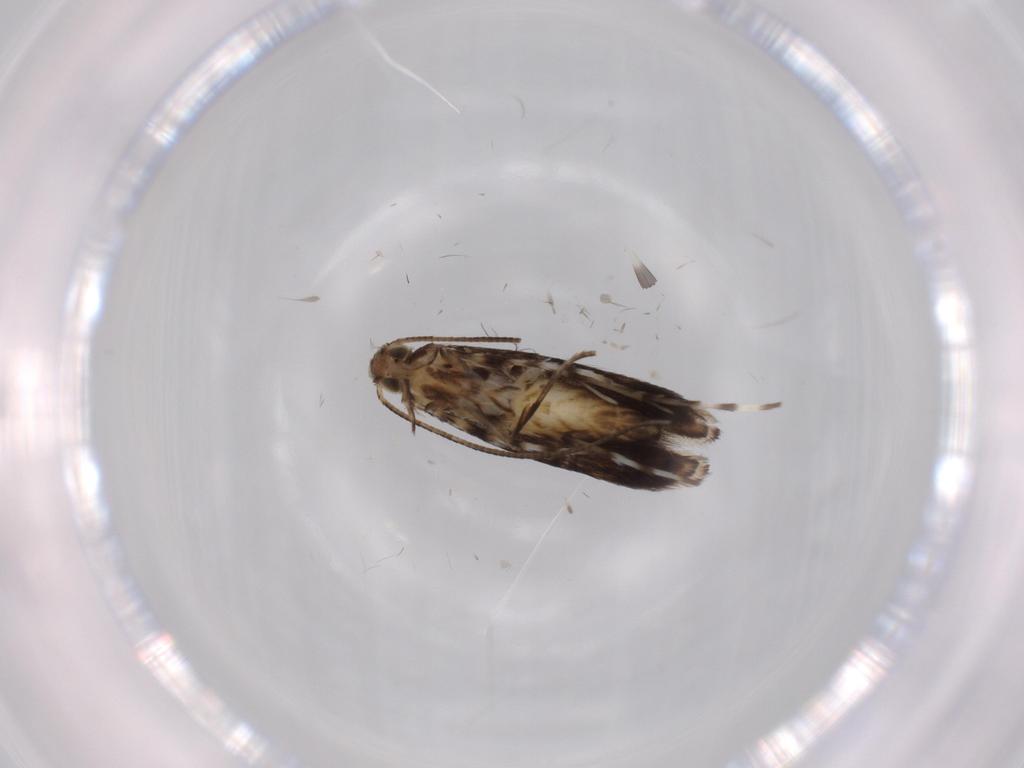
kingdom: Animalia
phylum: Arthropoda
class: Insecta
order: Lepidoptera
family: Gracillariidae
